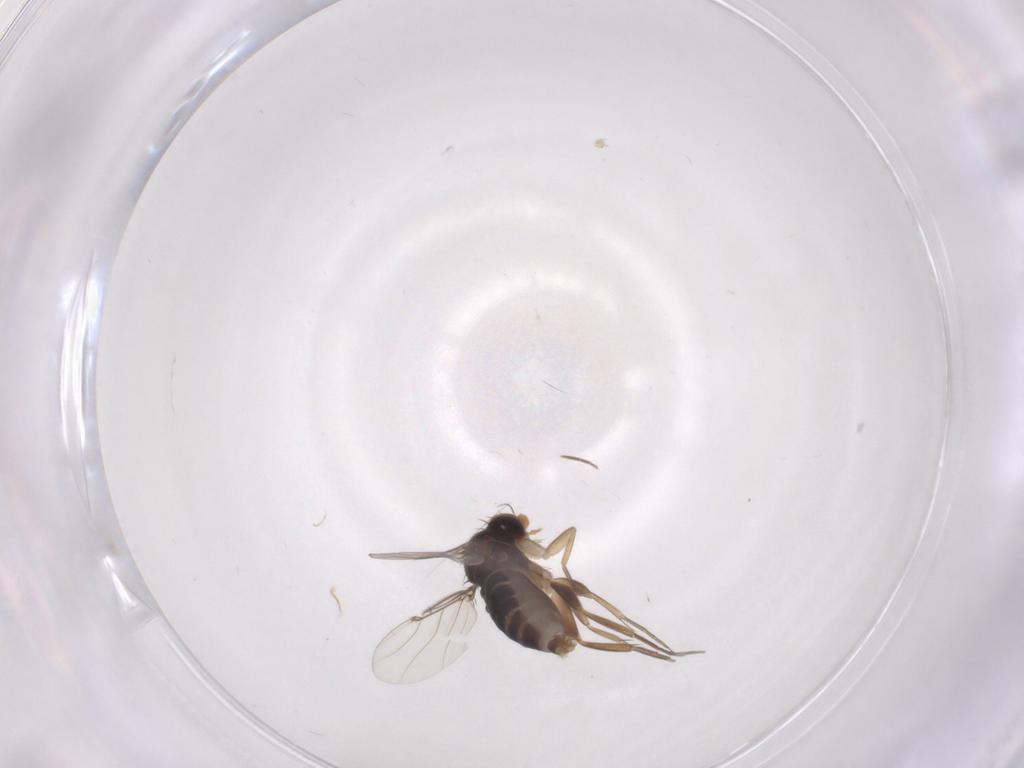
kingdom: Animalia
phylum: Arthropoda
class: Insecta
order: Diptera
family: Phoridae
